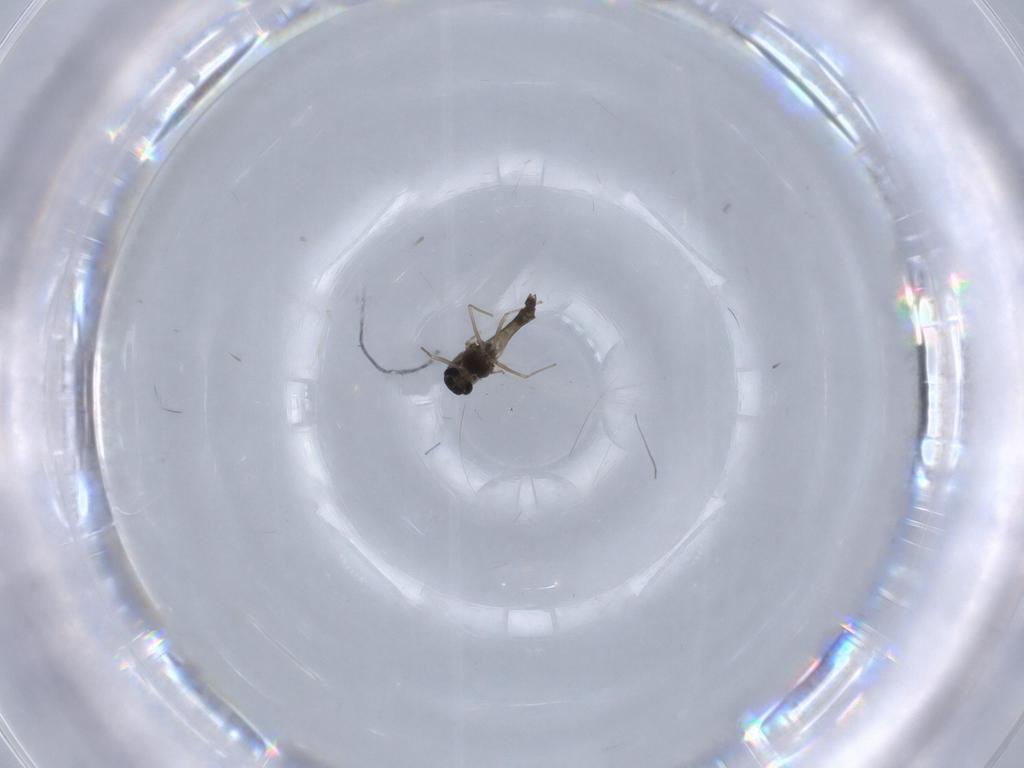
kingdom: Animalia
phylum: Arthropoda
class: Insecta
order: Diptera
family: Chironomidae
